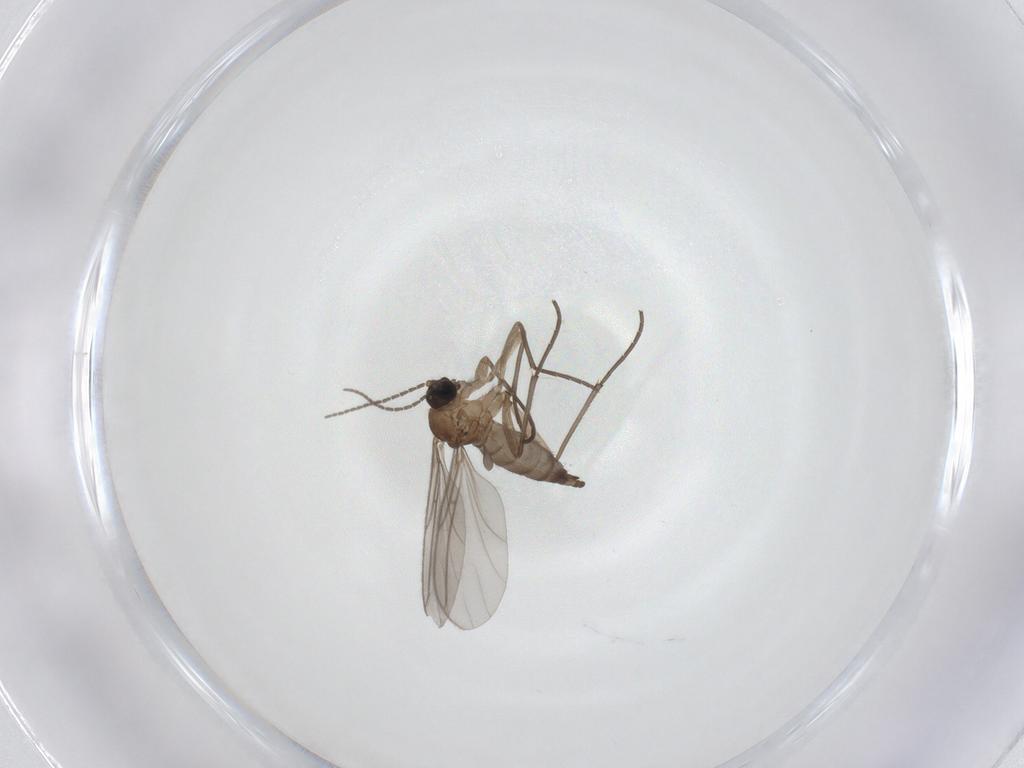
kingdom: Animalia
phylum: Arthropoda
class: Insecta
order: Diptera
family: Sciaridae
